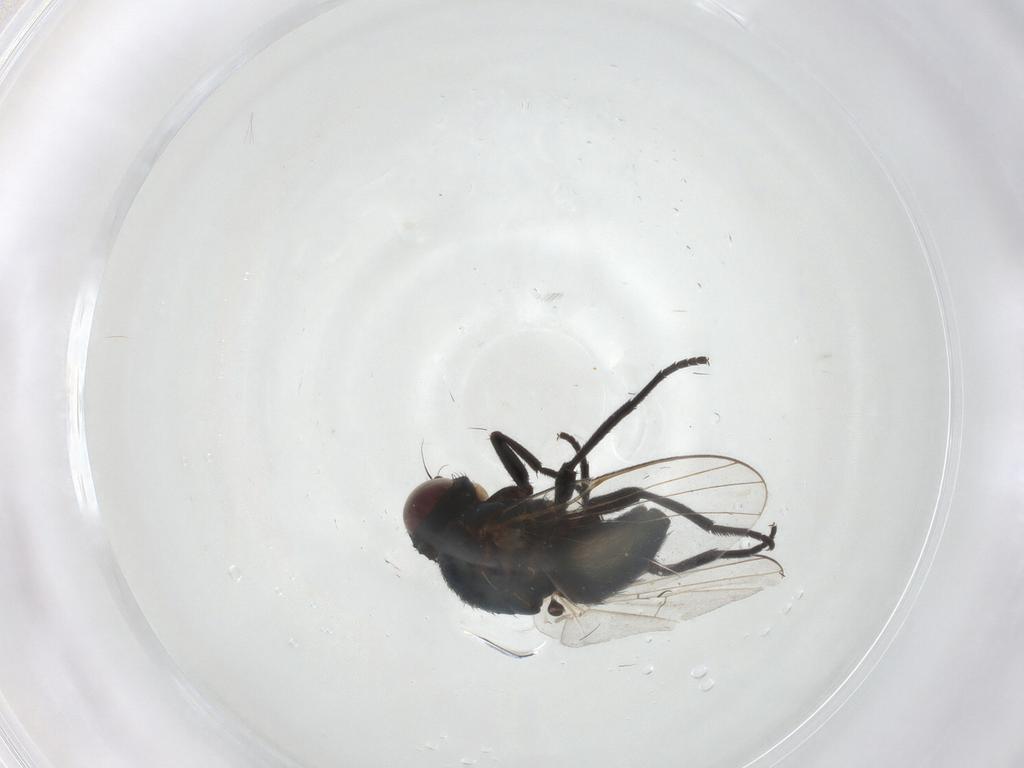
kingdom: Animalia
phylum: Arthropoda
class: Insecta
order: Diptera
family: Agromyzidae
